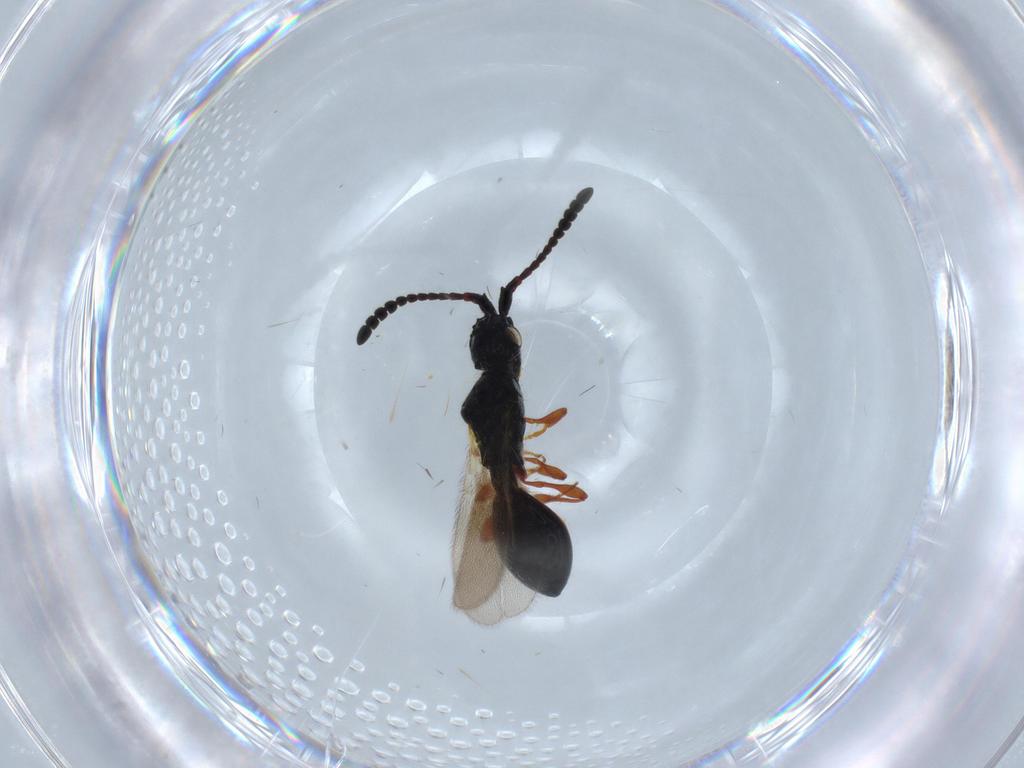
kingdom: Animalia
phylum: Arthropoda
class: Insecta
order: Hymenoptera
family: Diapriidae
